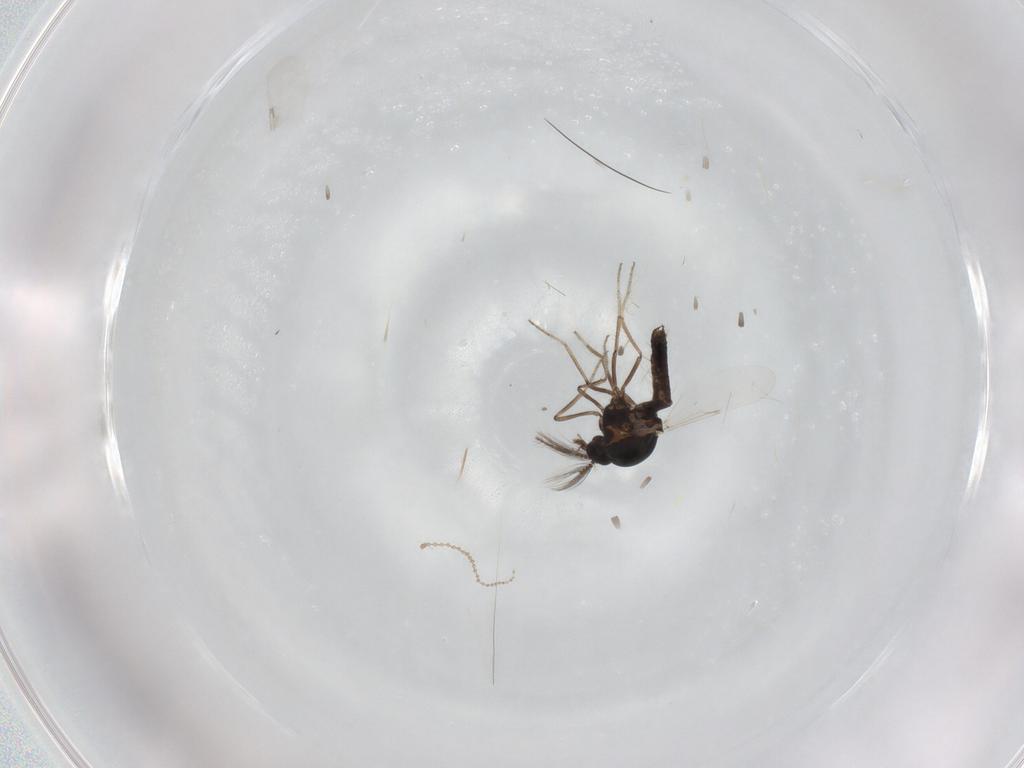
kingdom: Animalia
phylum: Arthropoda
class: Insecta
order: Diptera
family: Ceratopogonidae
